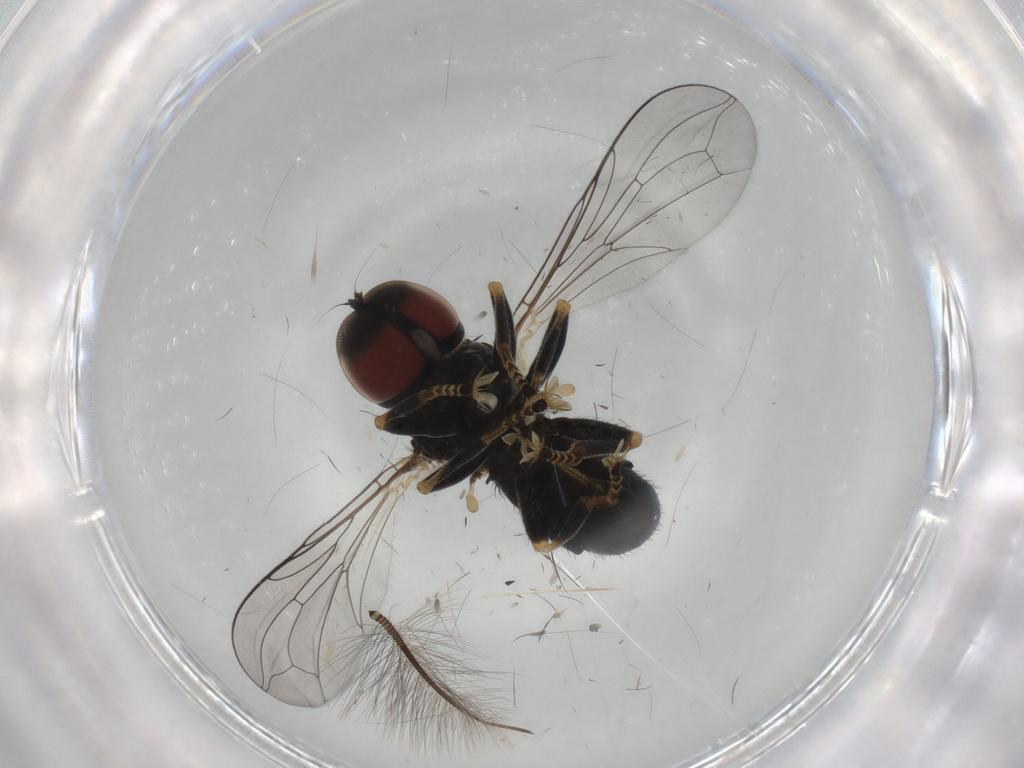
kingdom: Animalia
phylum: Arthropoda
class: Insecta
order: Diptera
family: Pipunculidae
